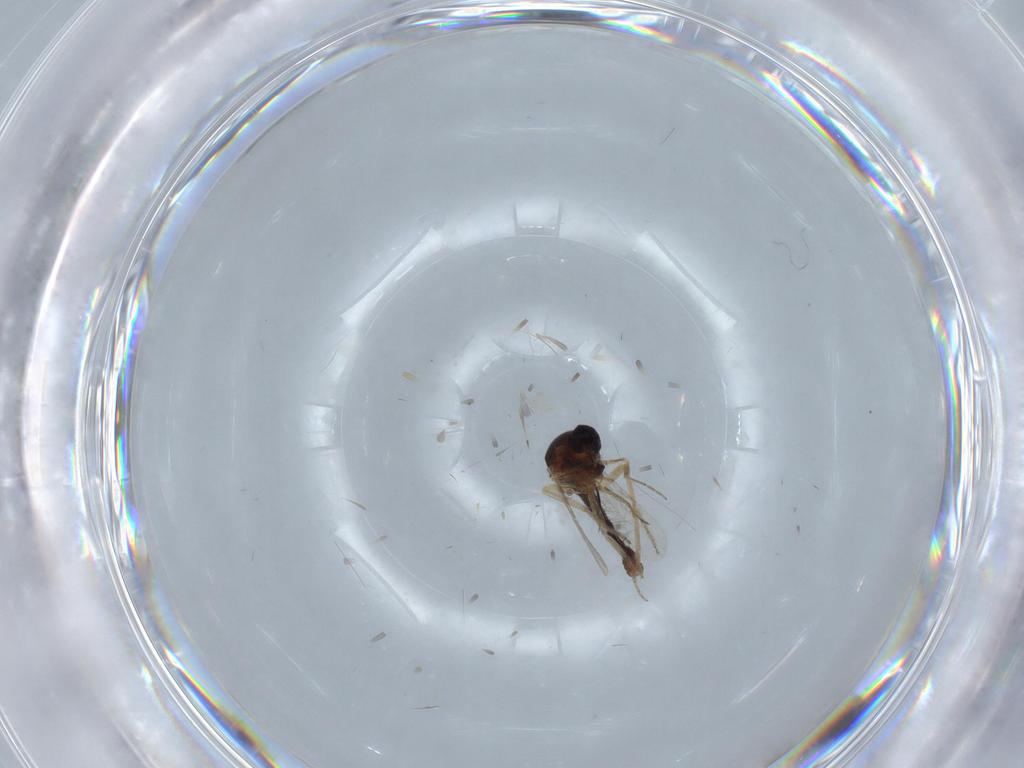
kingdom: Animalia
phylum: Arthropoda
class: Insecta
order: Diptera
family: Ceratopogonidae
